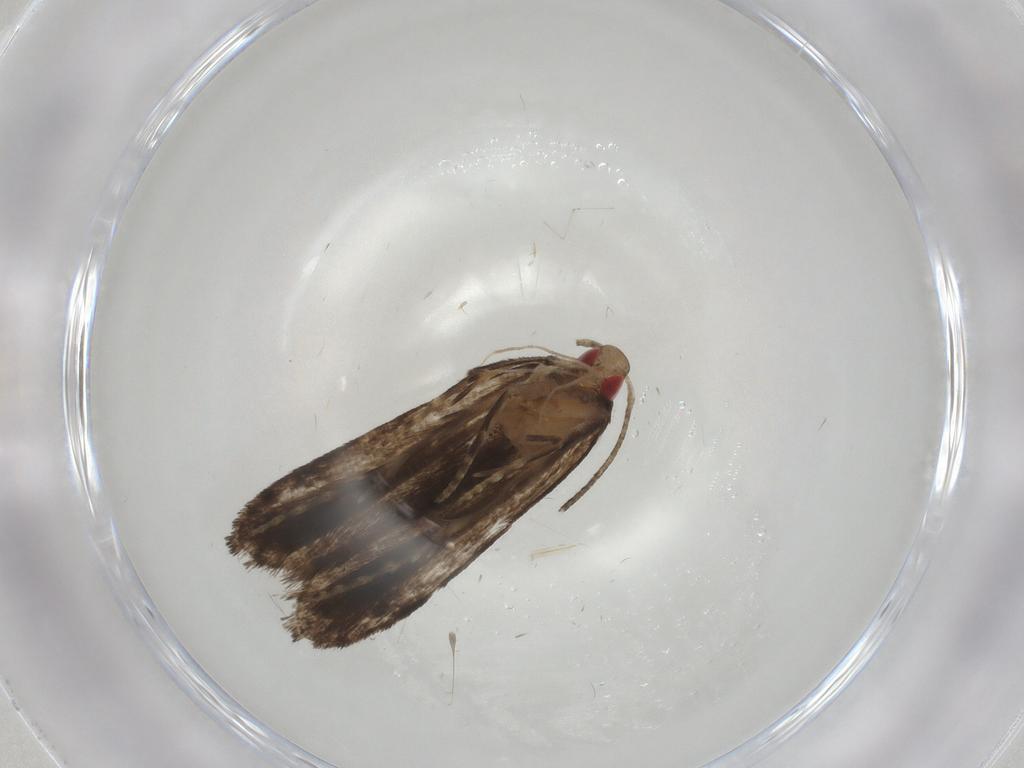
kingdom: Animalia
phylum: Arthropoda
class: Insecta
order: Lepidoptera
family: Gelechiidae
